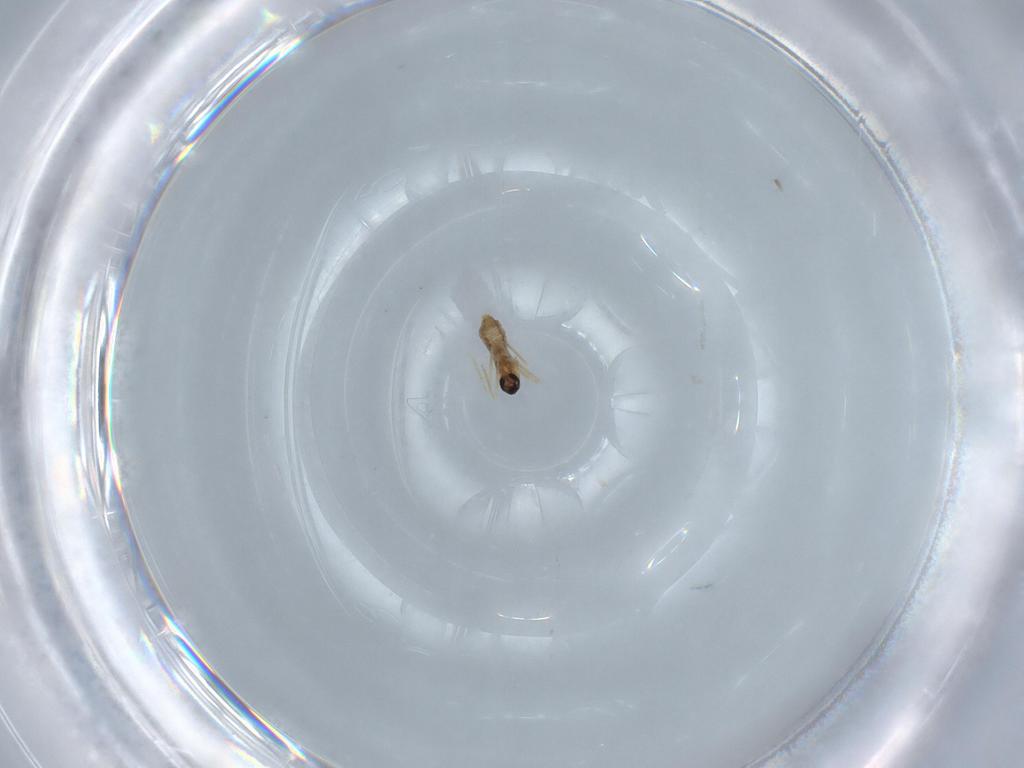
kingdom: Animalia
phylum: Arthropoda
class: Insecta
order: Diptera
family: Cecidomyiidae
